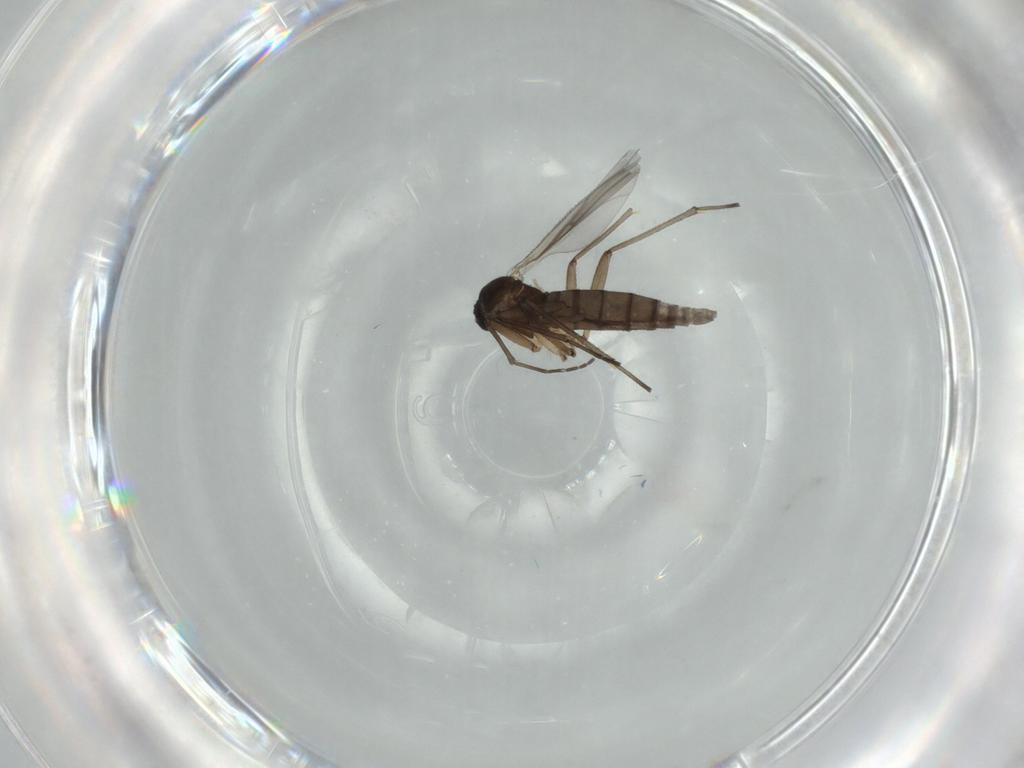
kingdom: Animalia
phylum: Arthropoda
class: Insecta
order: Diptera
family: Sciaridae
